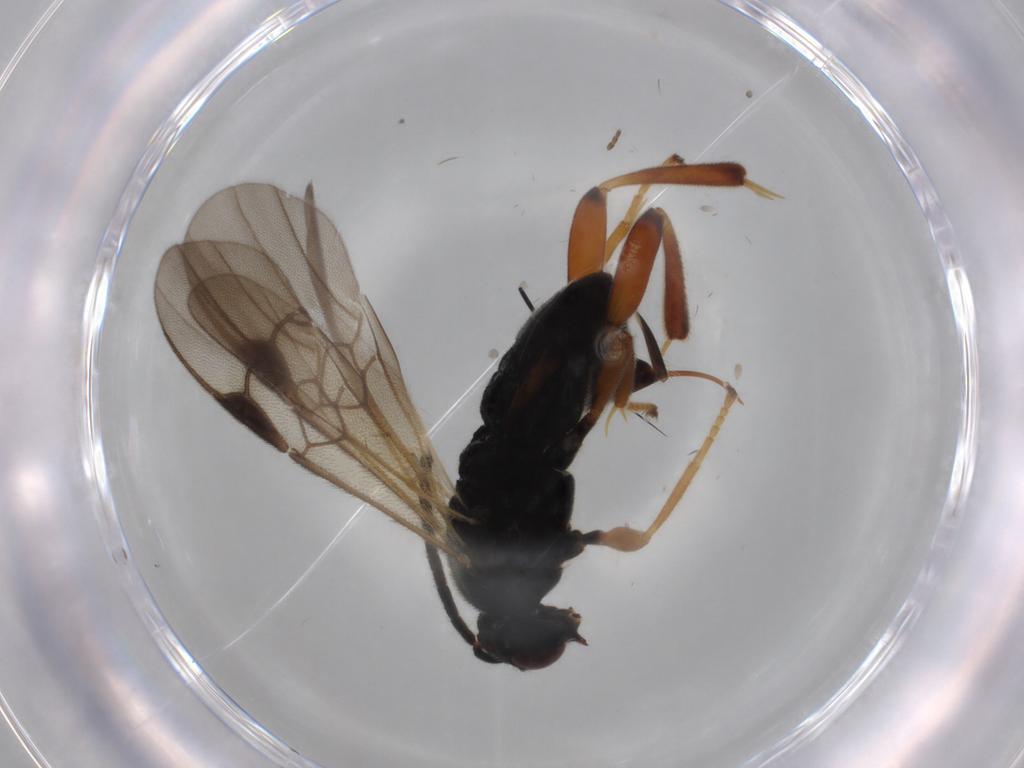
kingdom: Animalia
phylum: Arthropoda
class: Insecta
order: Hymenoptera
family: Braconidae
